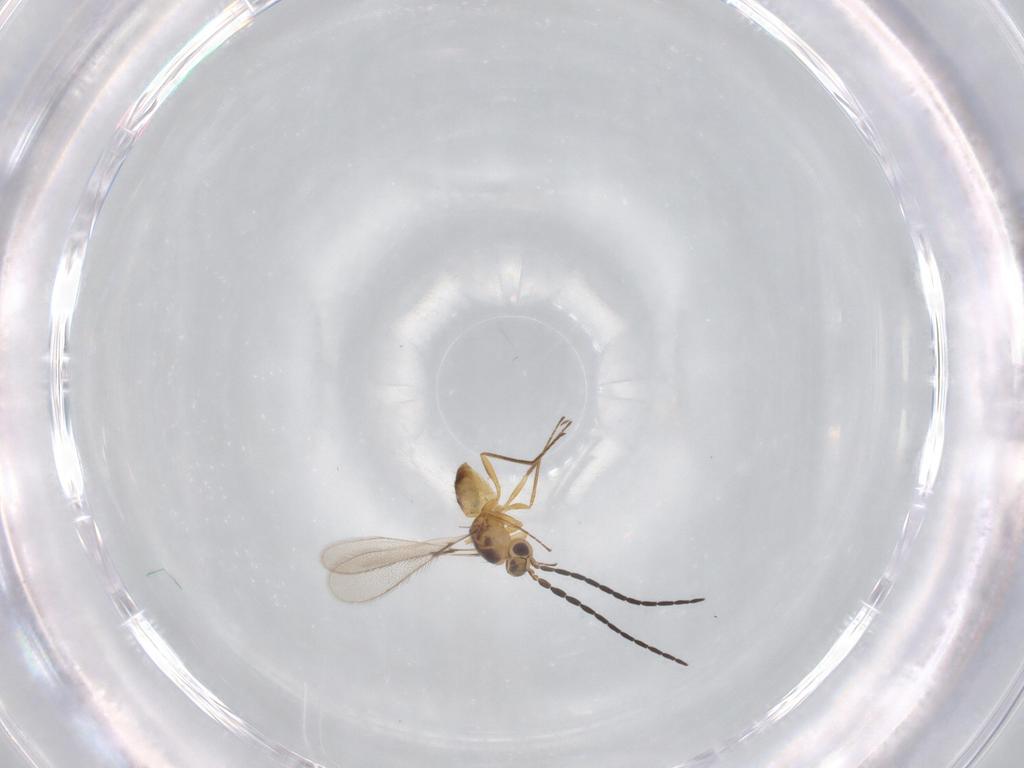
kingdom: Animalia
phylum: Arthropoda
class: Insecta
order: Hymenoptera
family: Mymaridae
